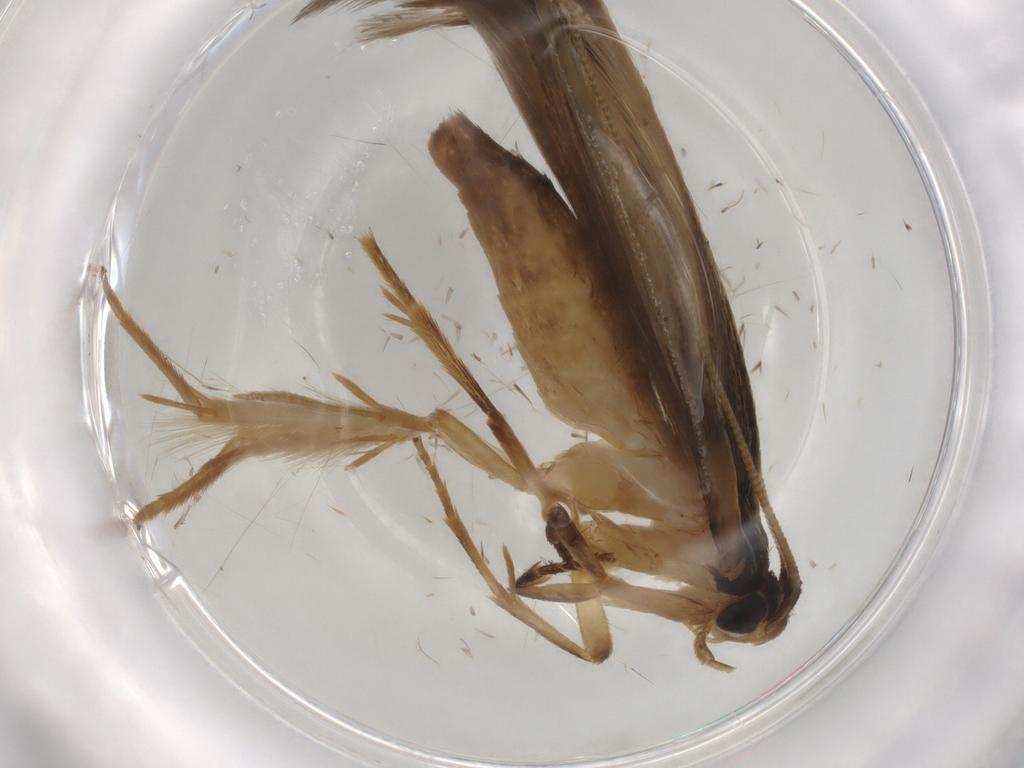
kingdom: Animalia
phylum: Arthropoda
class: Insecta
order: Lepidoptera
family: Tineidae
